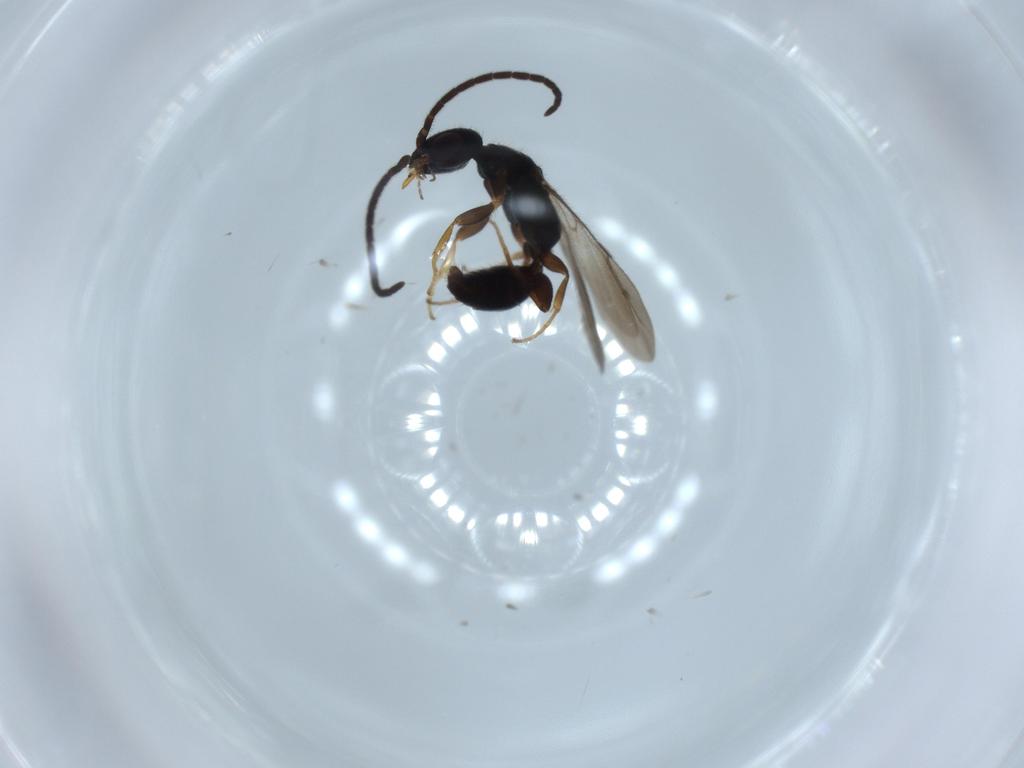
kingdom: Animalia
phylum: Arthropoda
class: Insecta
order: Hymenoptera
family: Bethylidae
